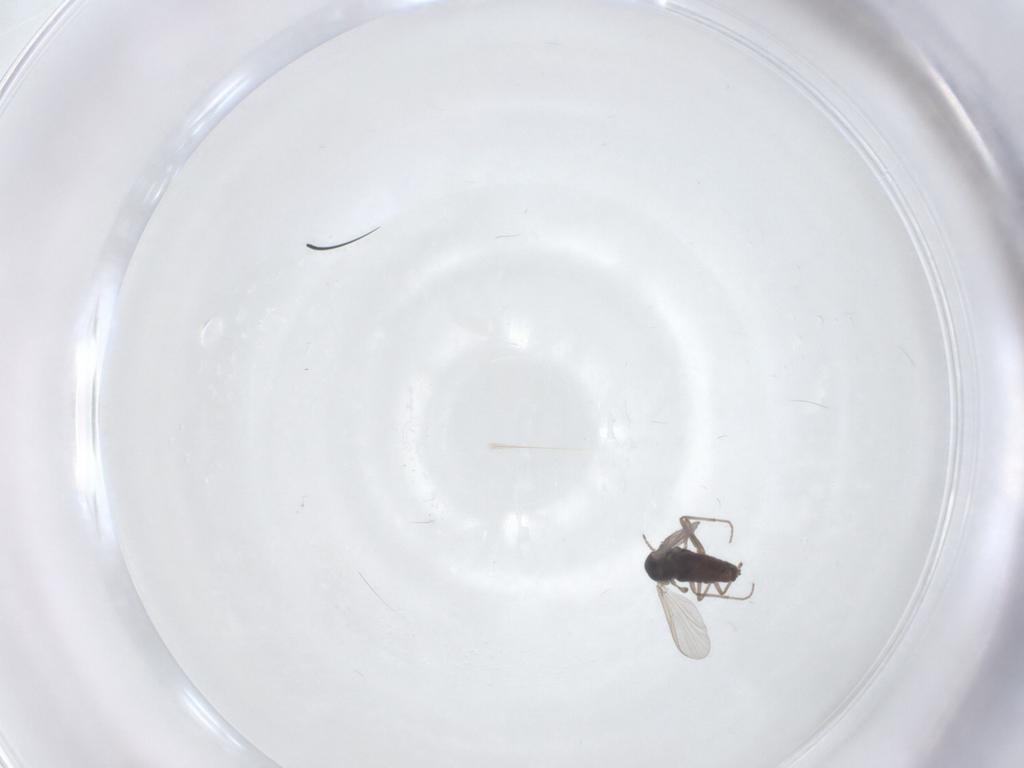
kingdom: Animalia
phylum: Arthropoda
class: Insecta
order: Diptera
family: Chironomidae
